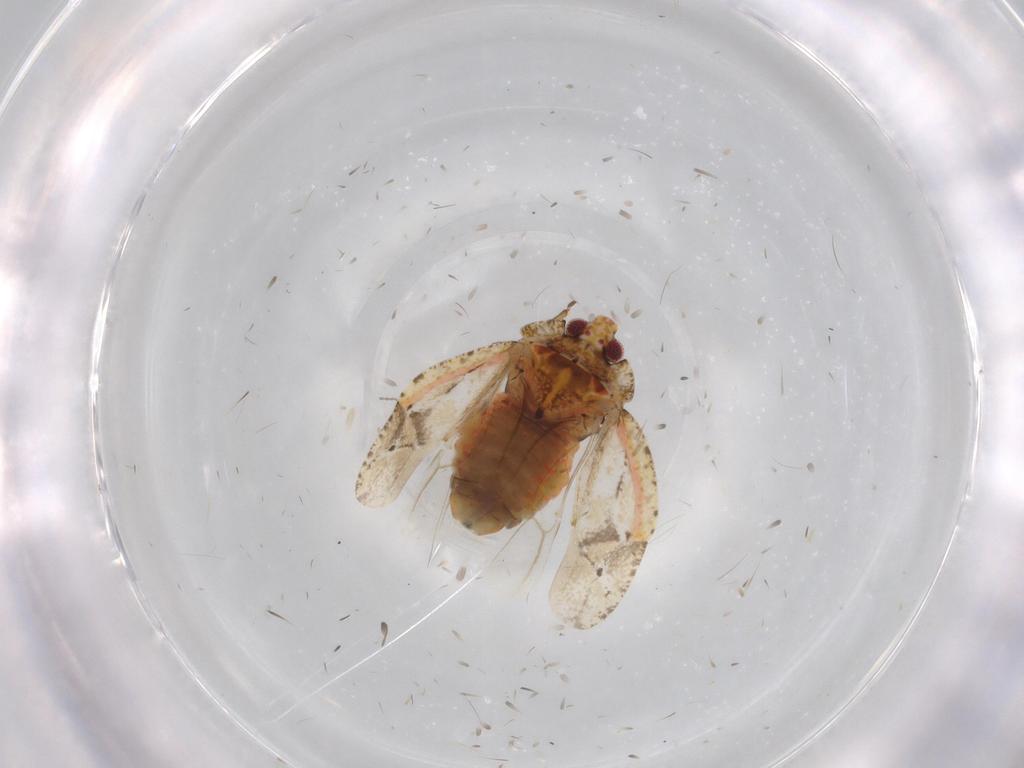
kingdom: Animalia
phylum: Arthropoda
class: Insecta
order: Diptera
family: Cecidomyiidae
